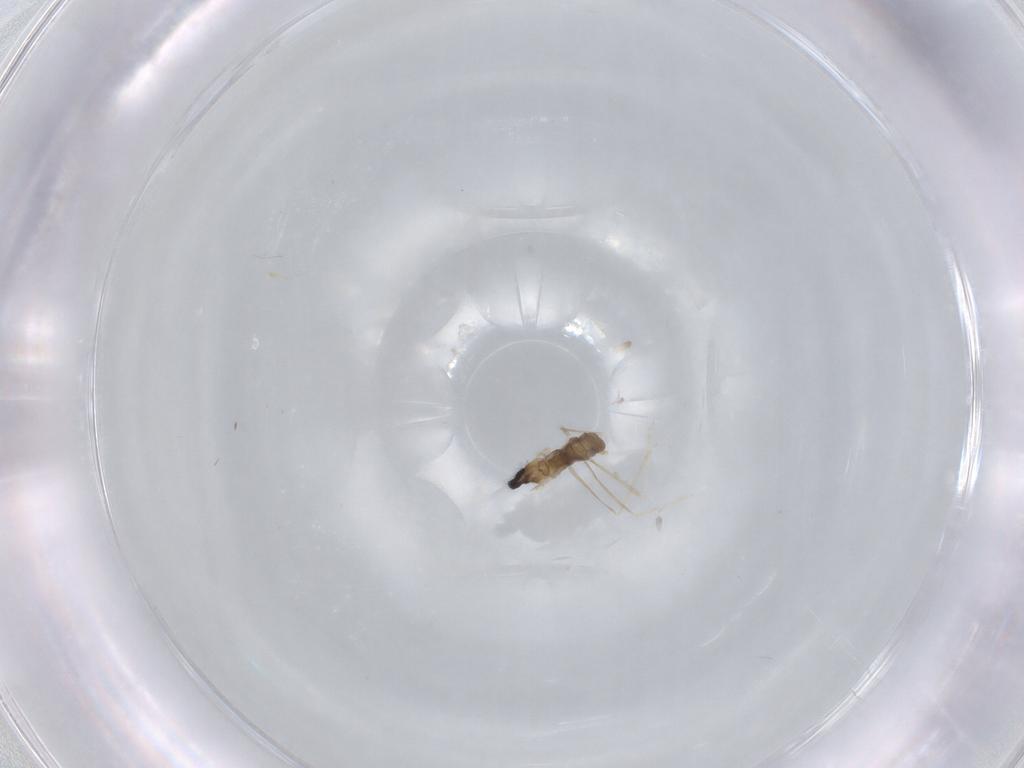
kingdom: Animalia
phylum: Arthropoda
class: Insecta
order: Diptera
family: Cecidomyiidae
